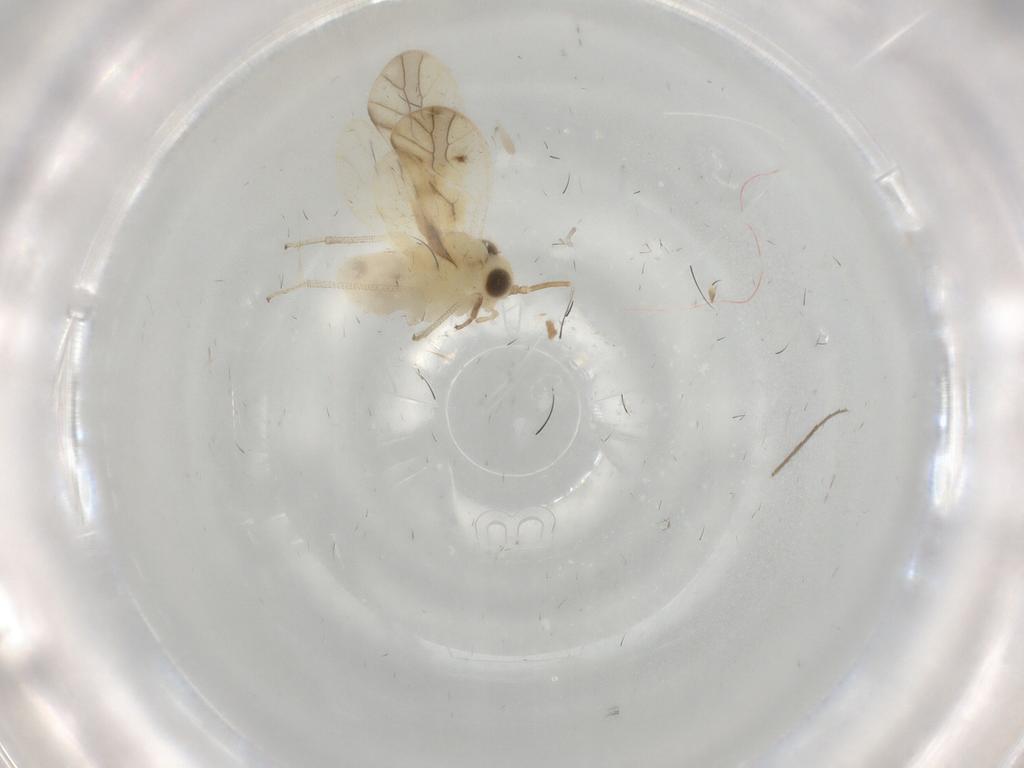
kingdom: Animalia
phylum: Arthropoda
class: Insecta
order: Psocodea
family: Caeciliusidae
